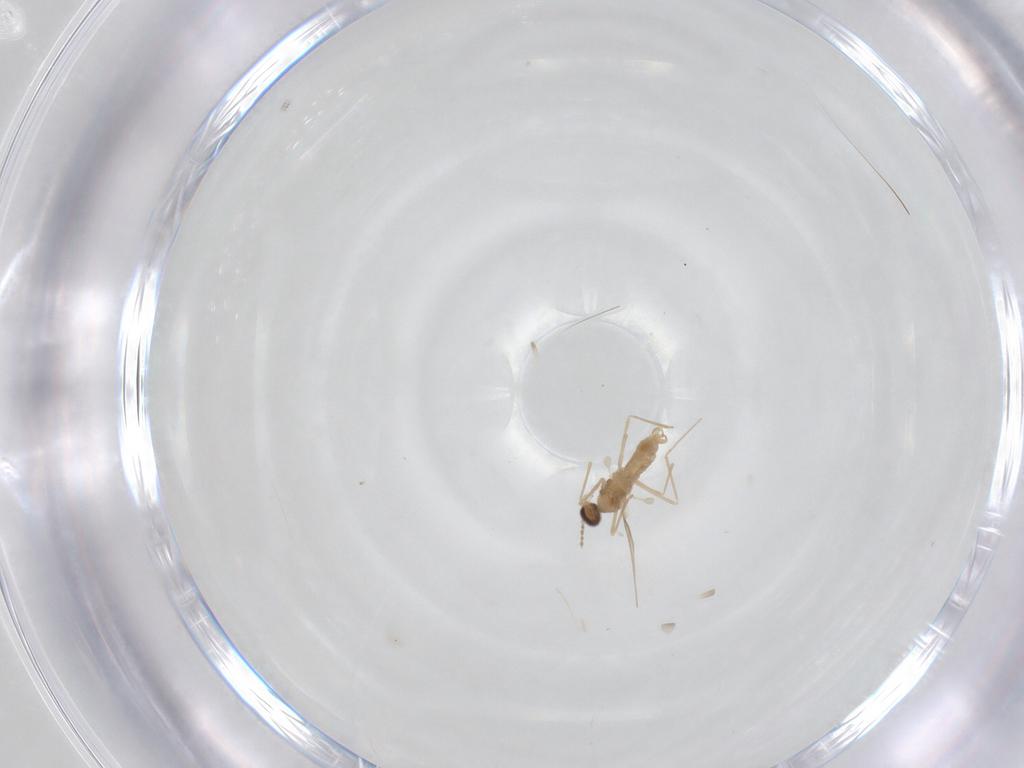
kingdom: Animalia
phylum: Arthropoda
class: Insecta
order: Diptera
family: Cecidomyiidae
